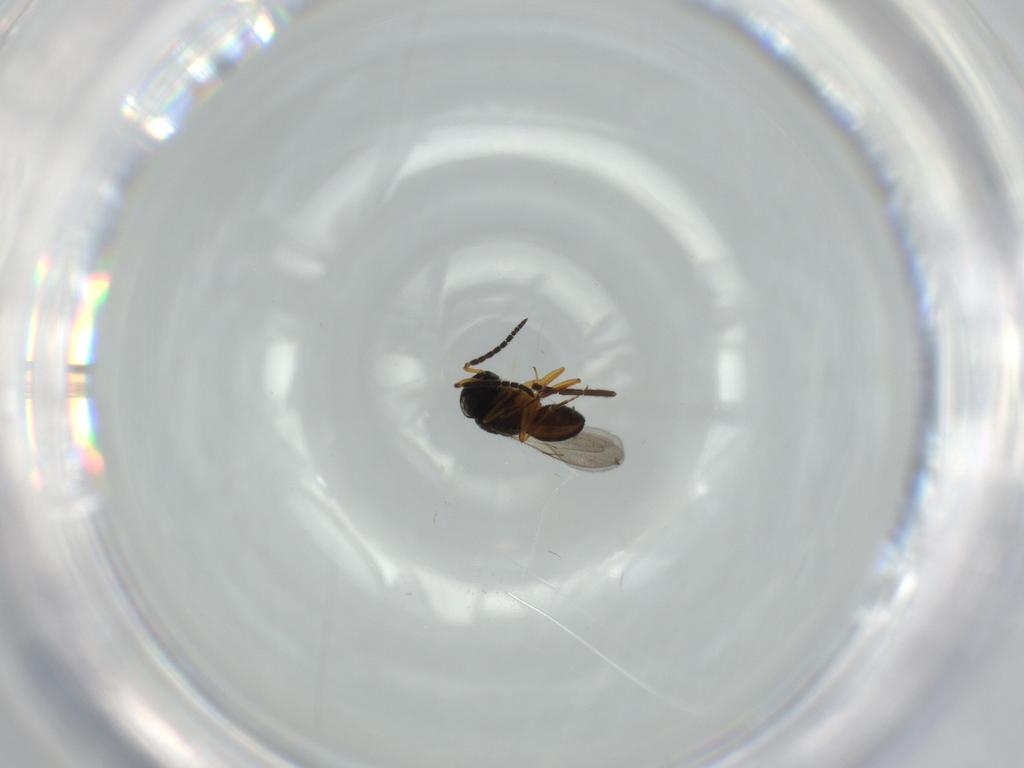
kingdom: Animalia
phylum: Arthropoda
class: Insecta
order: Hymenoptera
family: Scelionidae
